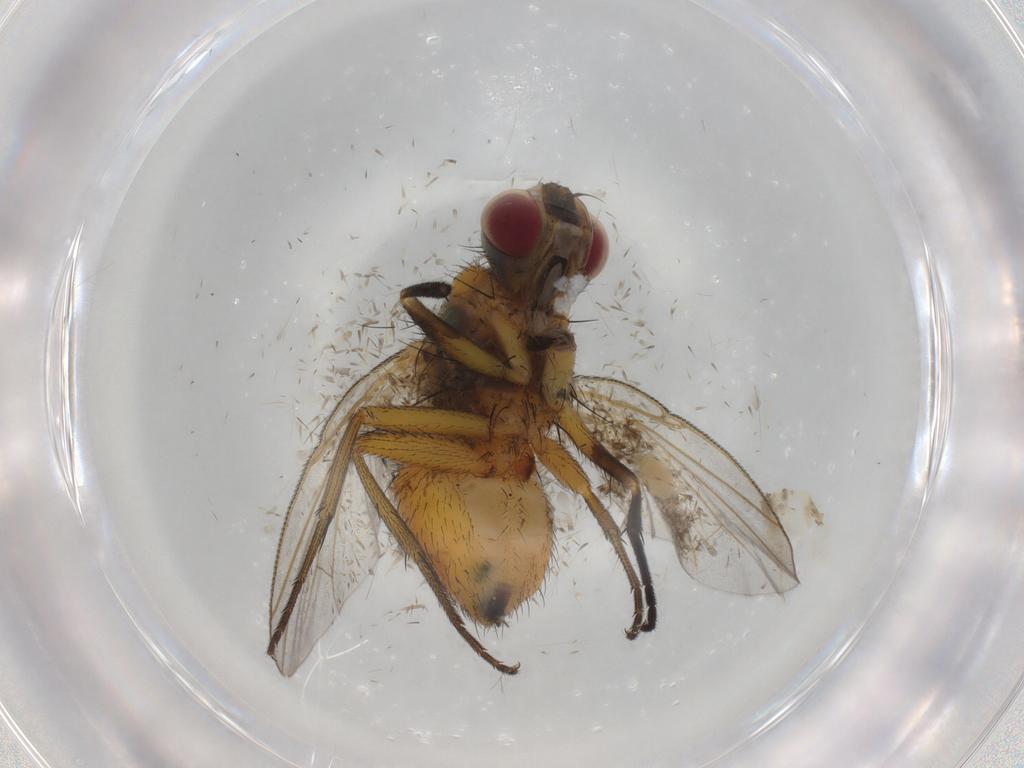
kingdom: Animalia
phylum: Arthropoda
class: Insecta
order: Diptera
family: Muscidae
